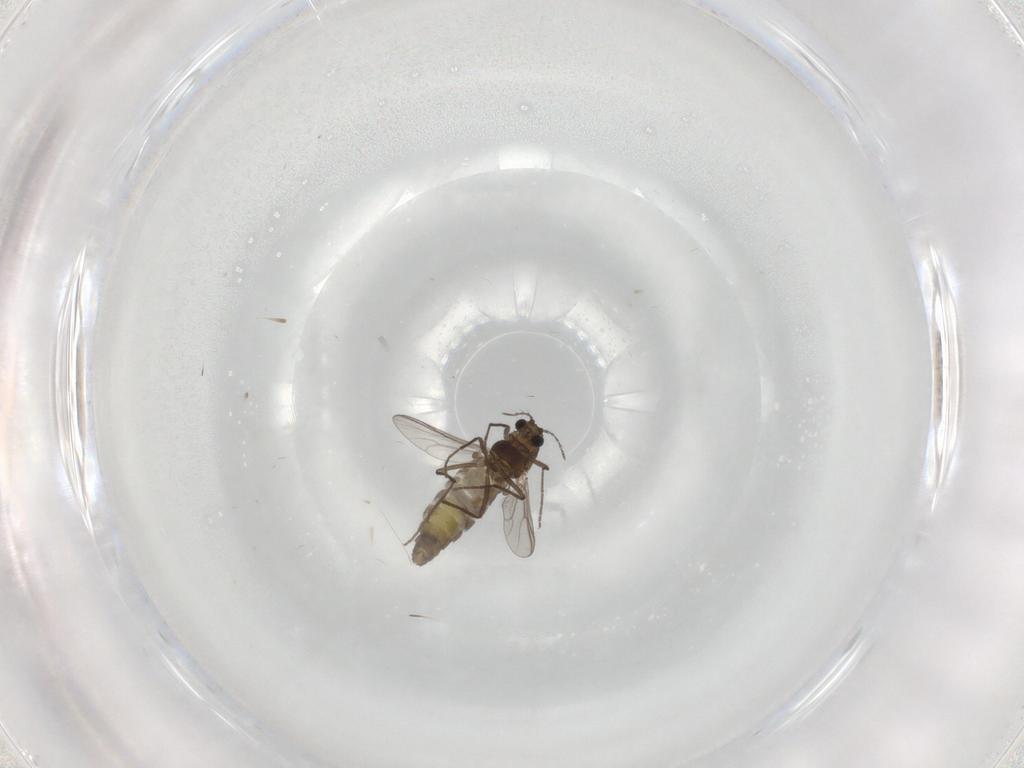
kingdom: Animalia
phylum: Arthropoda
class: Insecta
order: Diptera
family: Chironomidae
